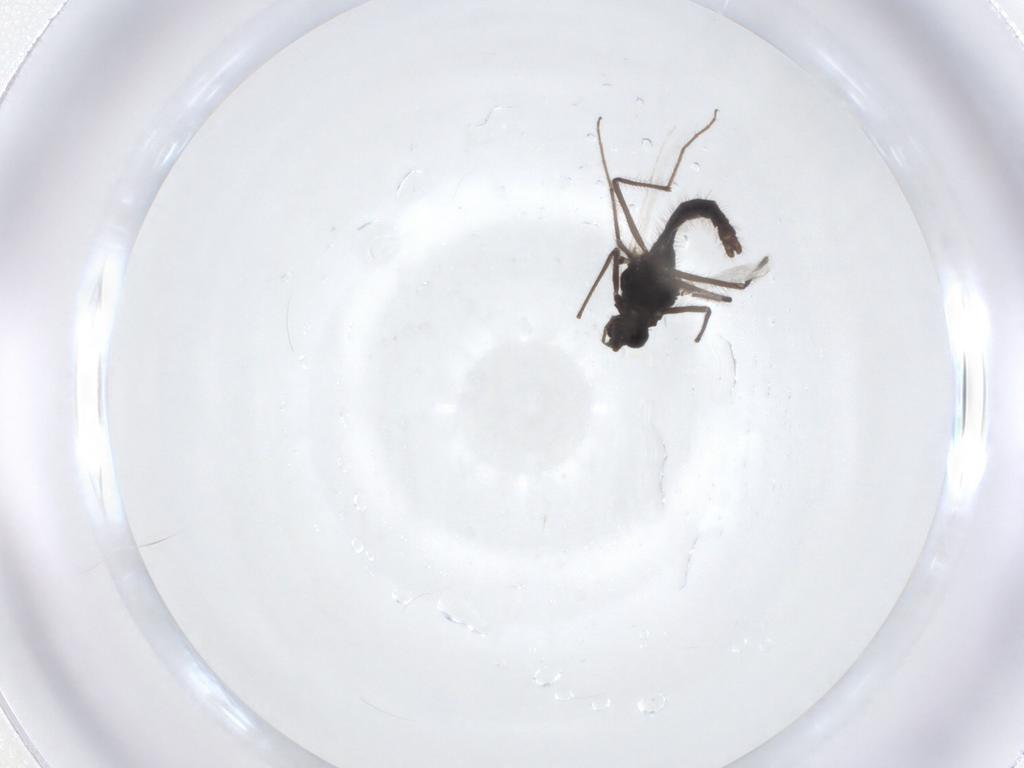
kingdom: Animalia
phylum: Arthropoda
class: Insecta
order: Diptera
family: Chironomidae
